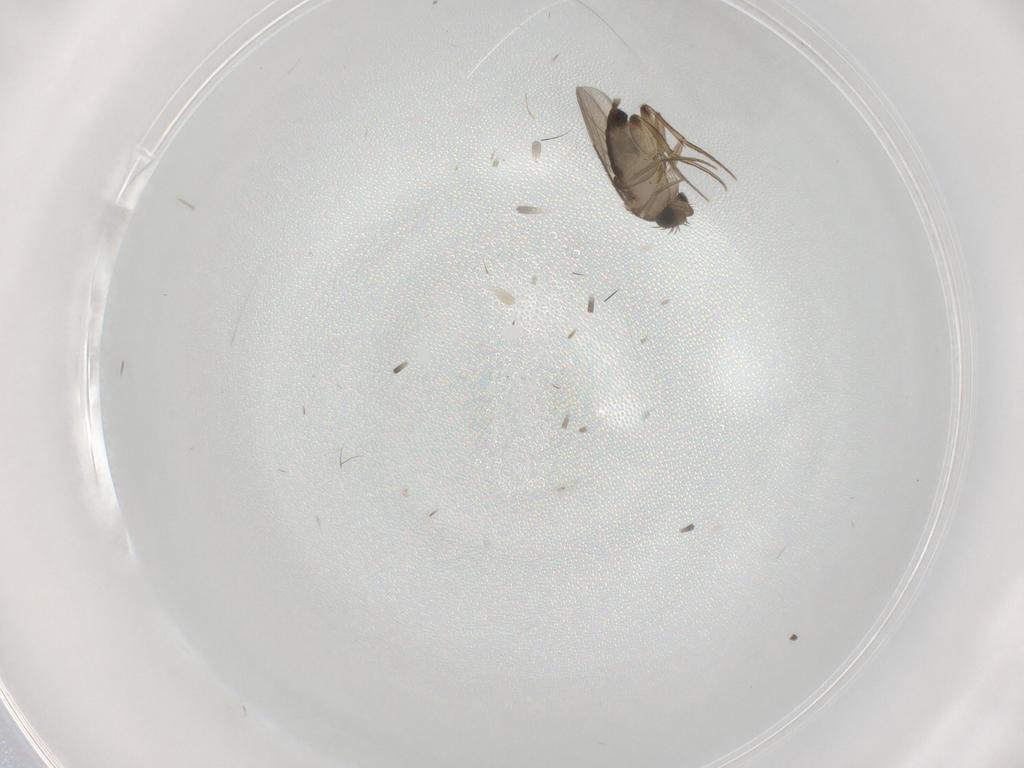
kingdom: Animalia
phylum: Arthropoda
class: Insecta
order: Diptera
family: Phoridae
